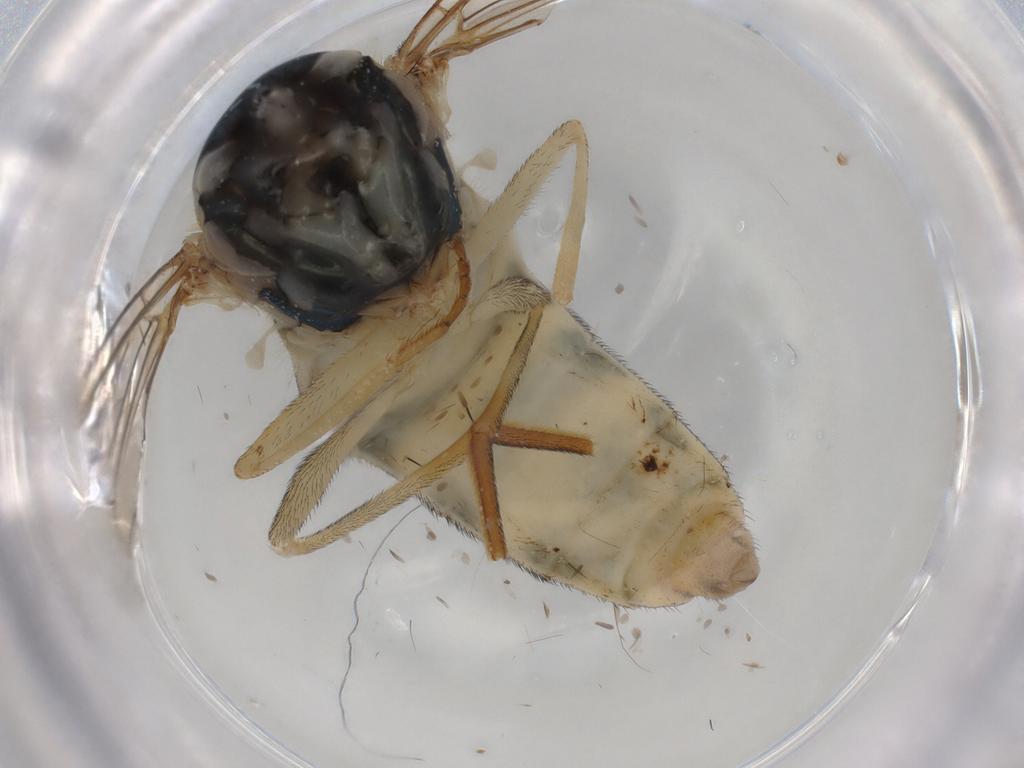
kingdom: Animalia
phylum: Arthropoda
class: Insecta
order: Diptera
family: Syrphidae
